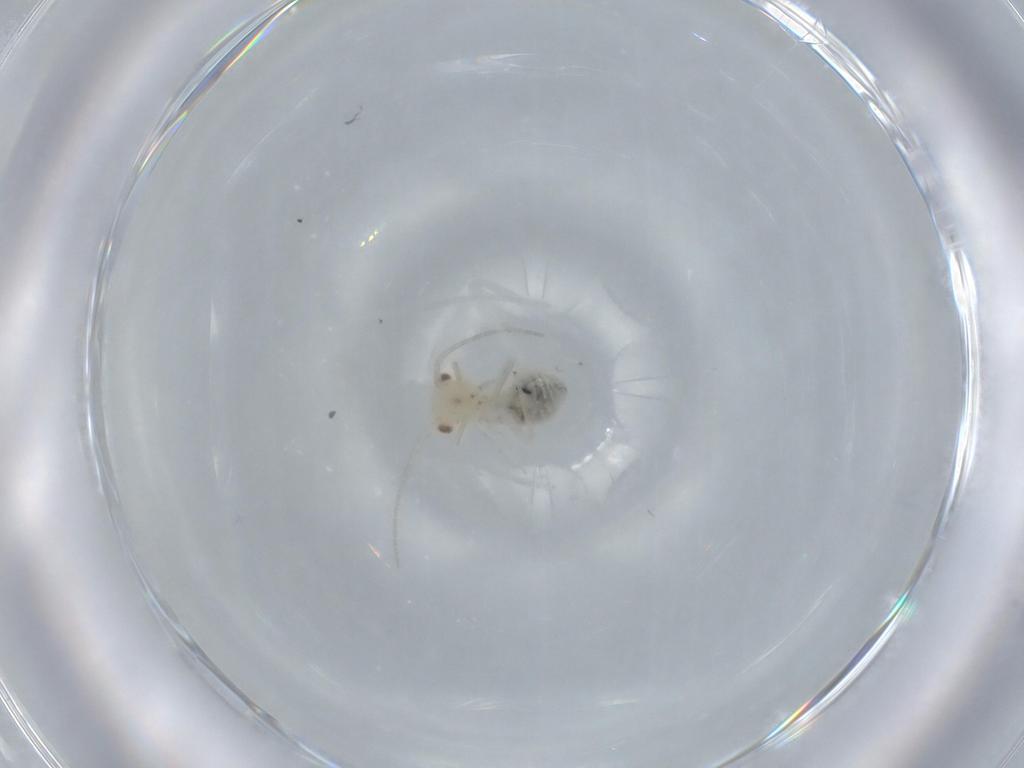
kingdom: Animalia
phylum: Arthropoda
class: Insecta
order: Psocodea
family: Caeciliusidae
